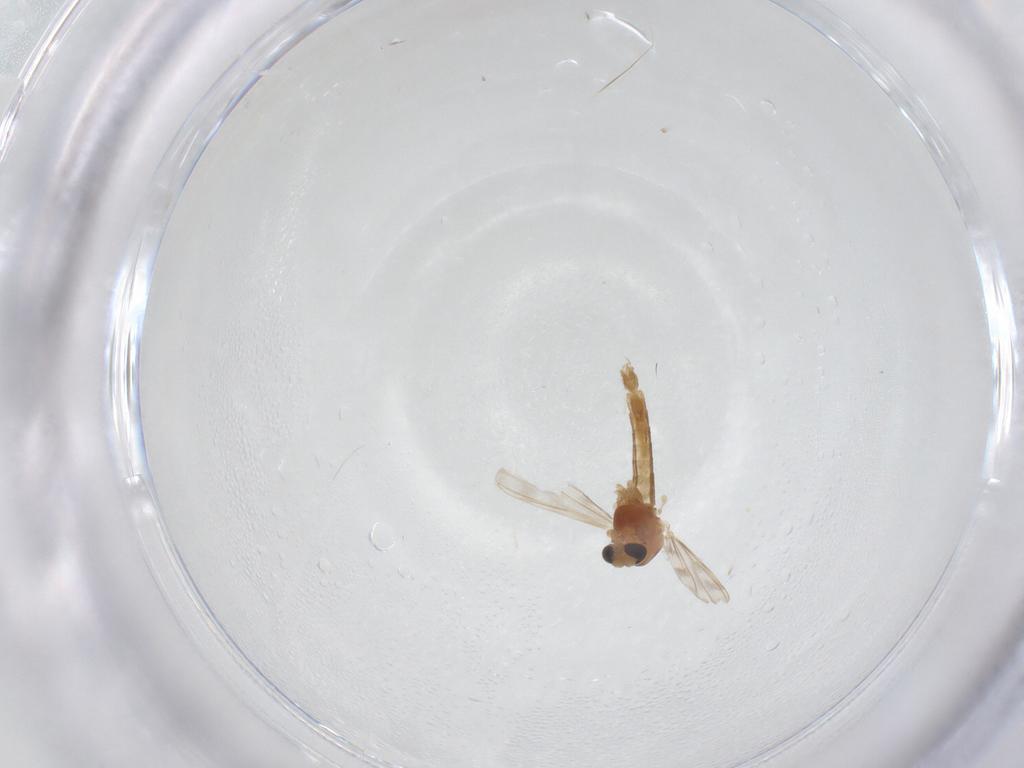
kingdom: Animalia
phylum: Arthropoda
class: Insecta
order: Diptera
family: Chironomidae
